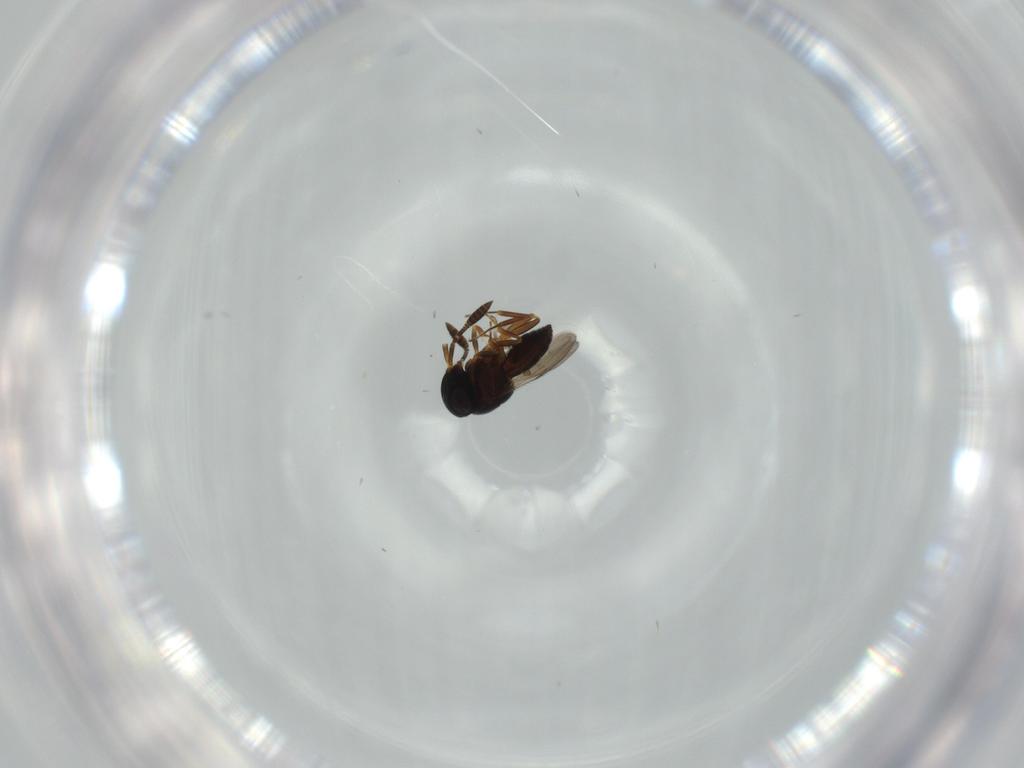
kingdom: Animalia
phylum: Arthropoda
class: Insecta
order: Coleoptera
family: Curculionidae
